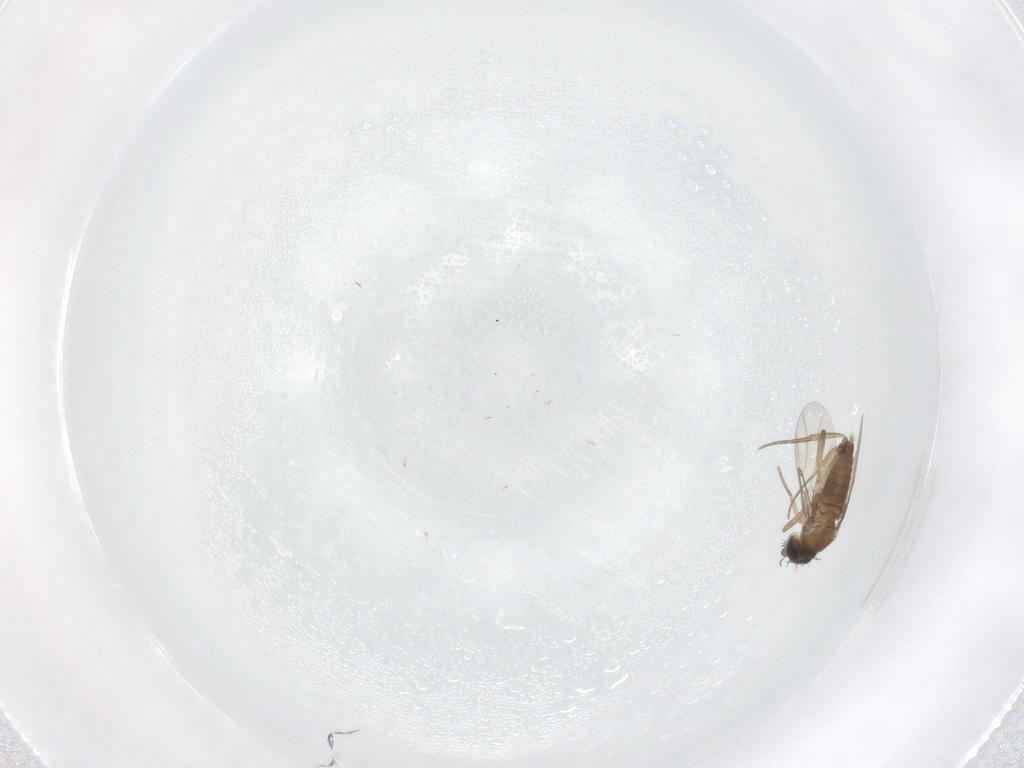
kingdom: Animalia
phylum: Arthropoda
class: Insecta
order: Diptera
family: Phoridae
